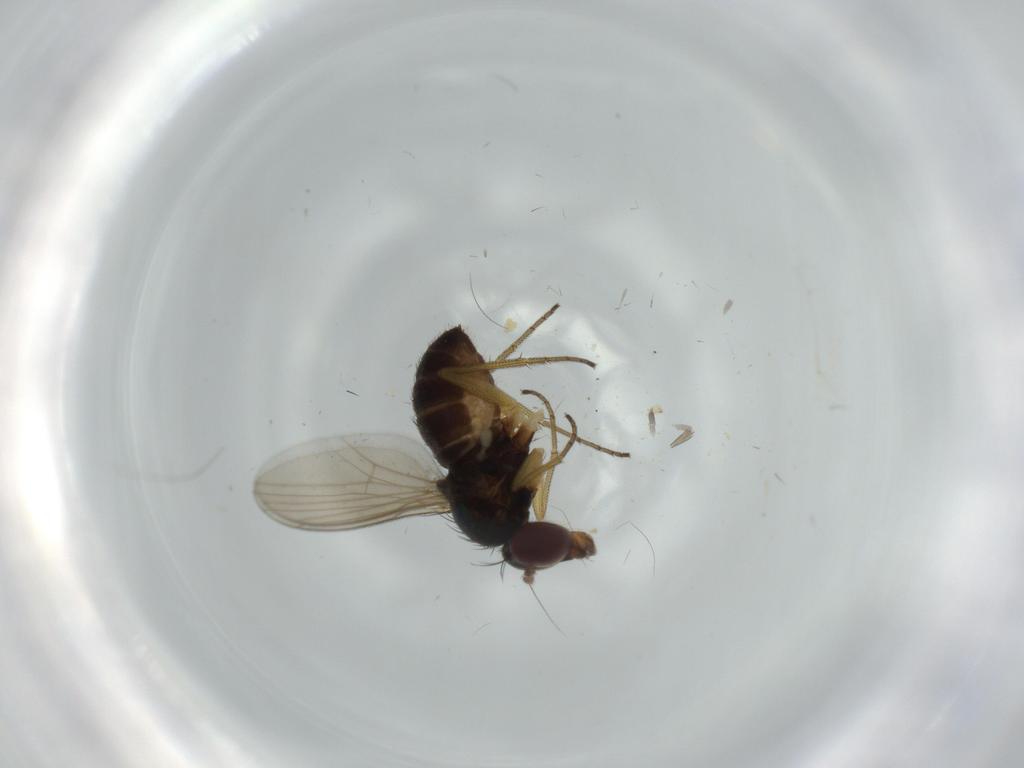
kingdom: Animalia
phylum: Arthropoda
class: Insecta
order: Diptera
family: Dolichopodidae
